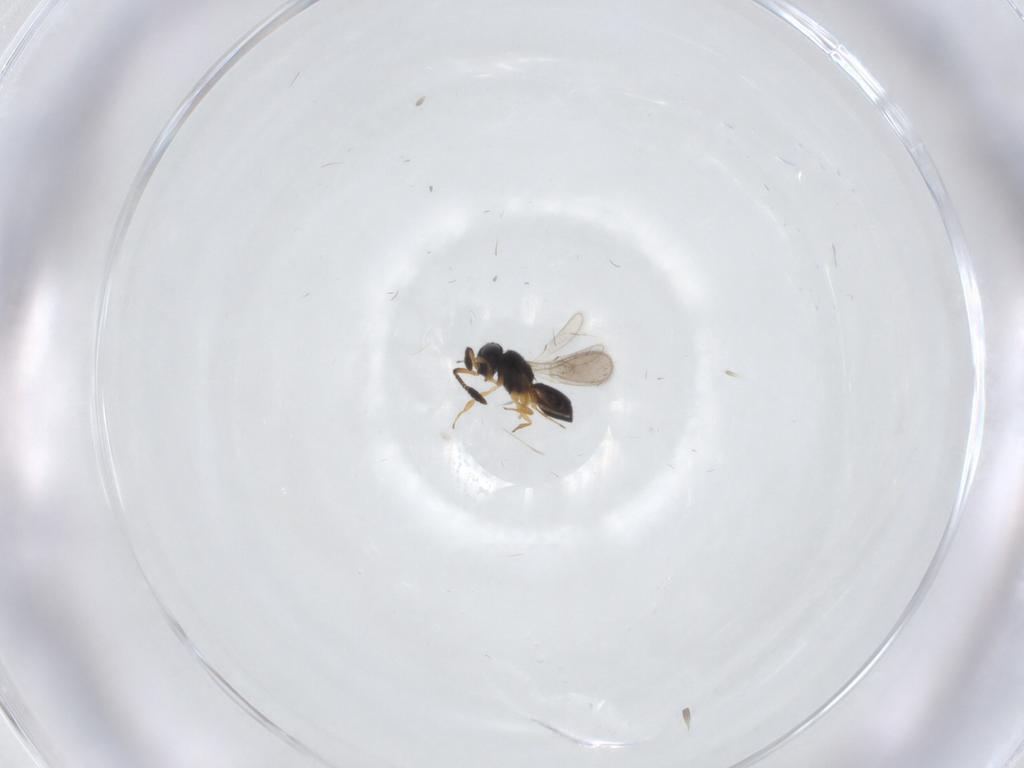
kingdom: Animalia
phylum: Arthropoda
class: Insecta
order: Hymenoptera
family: Scelionidae
